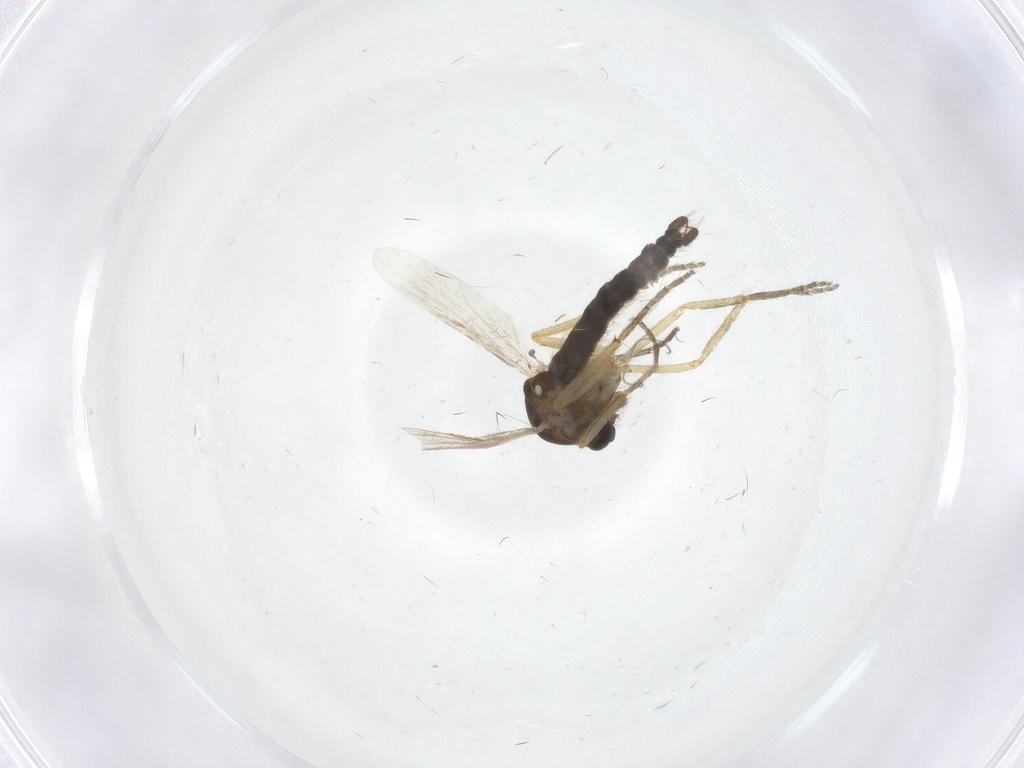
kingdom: Animalia
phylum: Arthropoda
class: Insecta
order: Diptera
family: Ceratopogonidae
